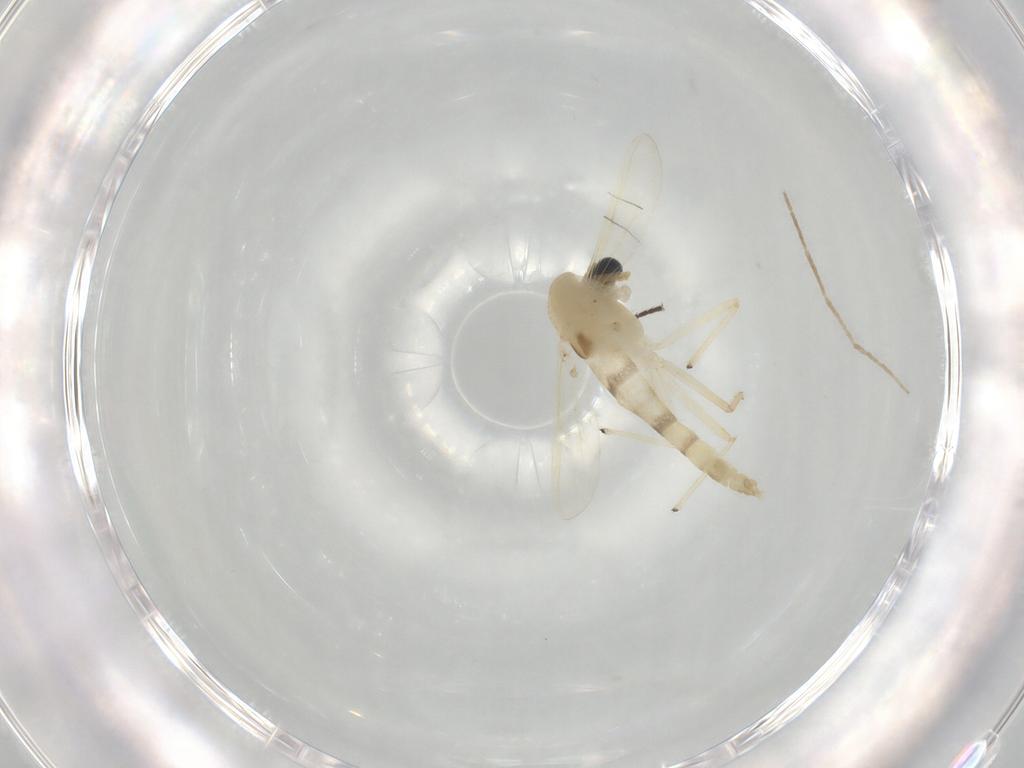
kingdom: Animalia
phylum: Arthropoda
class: Insecta
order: Diptera
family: Chironomidae
